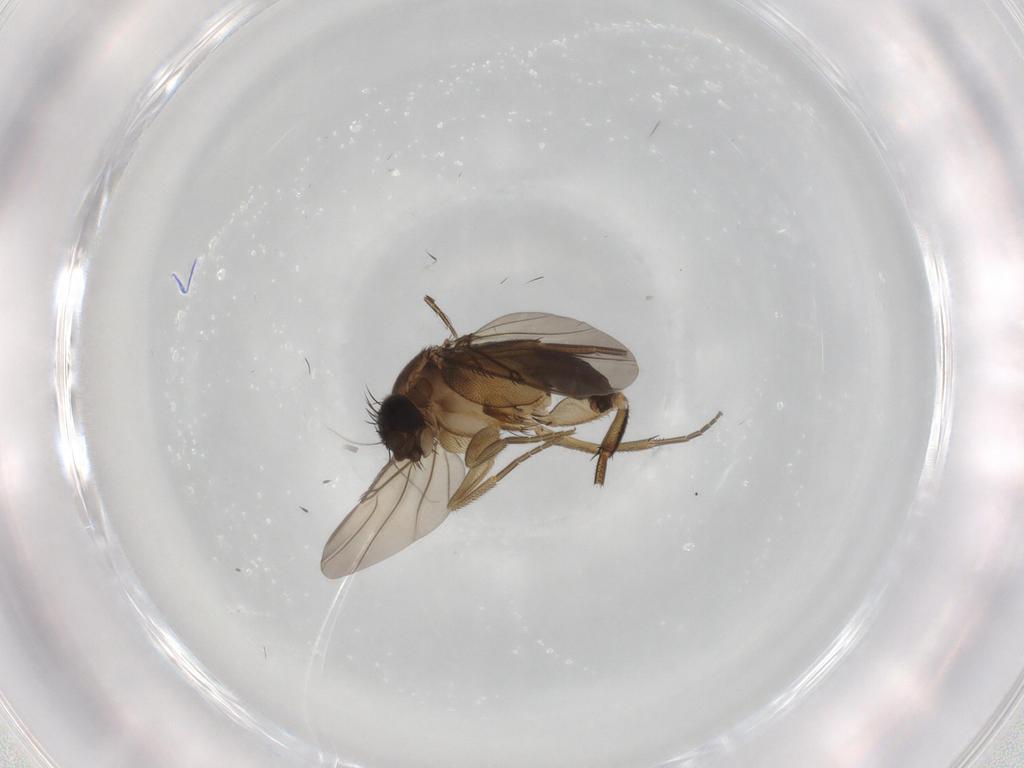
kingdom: Animalia
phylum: Arthropoda
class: Insecta
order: Diptera
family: Phoridae
